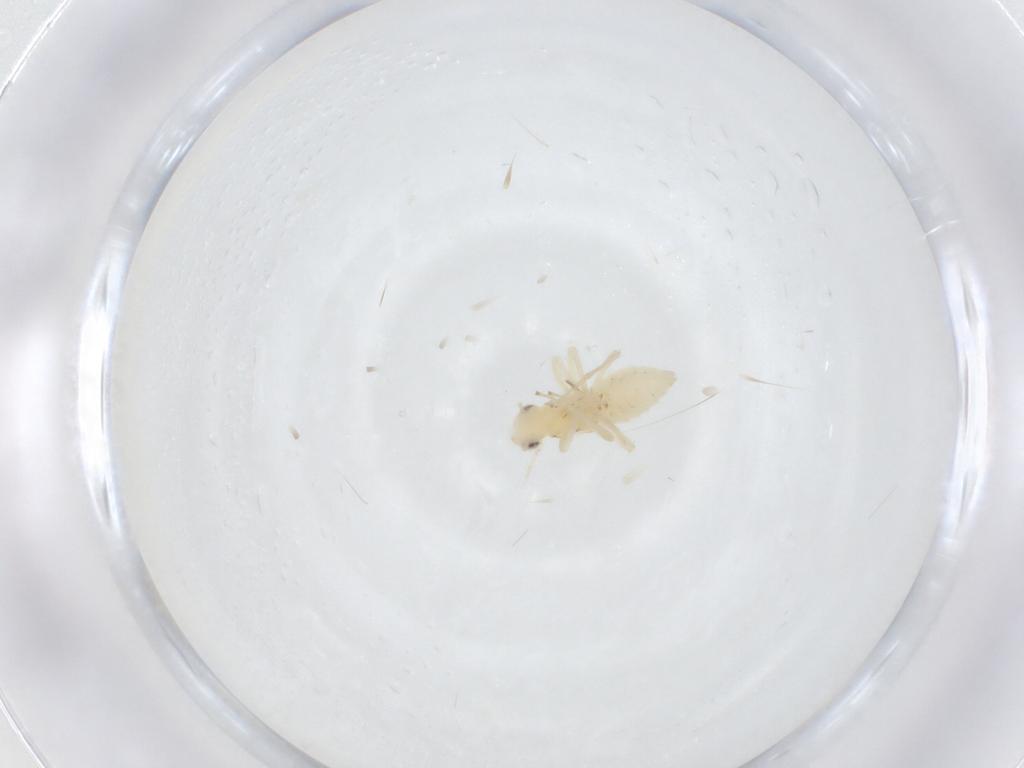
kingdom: Animalia
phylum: Arthropoda
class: Insecta
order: Hemiptera
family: Cicadellidae
